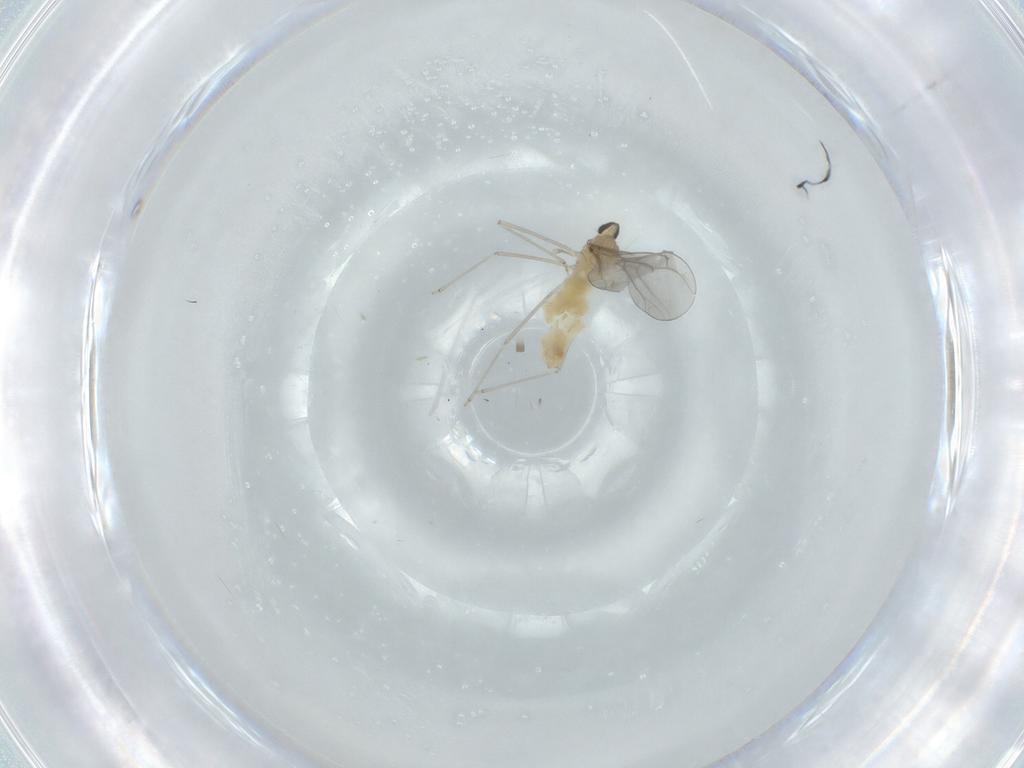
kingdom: Animalia
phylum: Arthropoda
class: Insecta
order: Diptera
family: Cecidomyiidae
